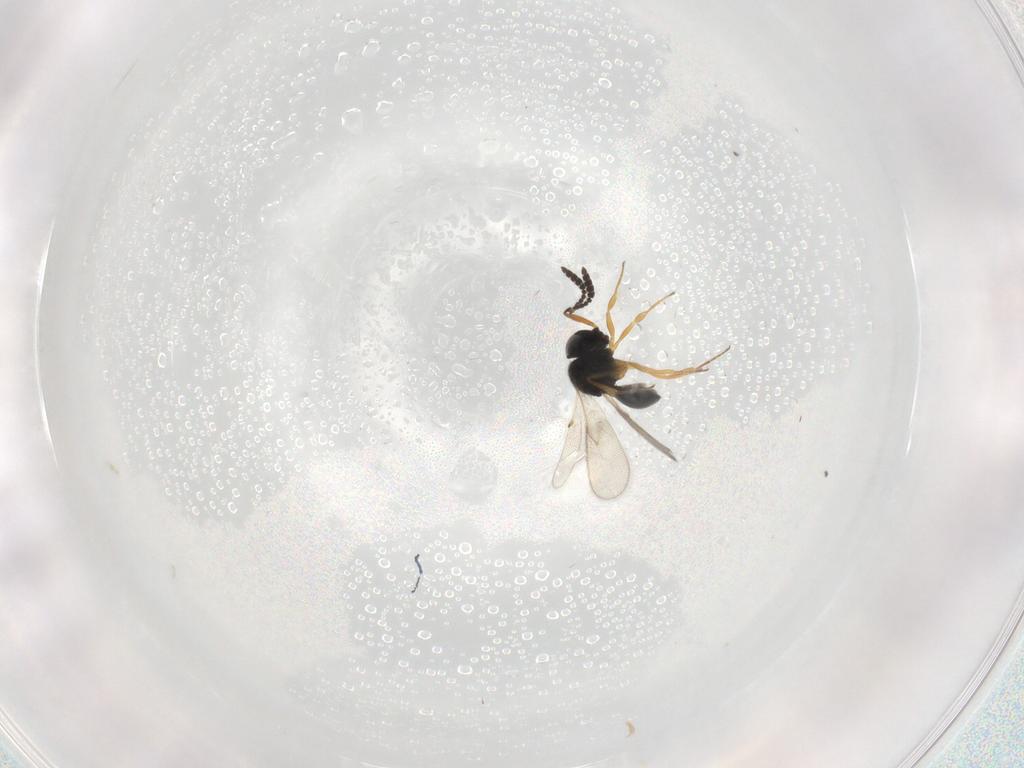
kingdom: Animalia
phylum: Arthropoda
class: Insecta
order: Hymenoptera
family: Scelionidae
